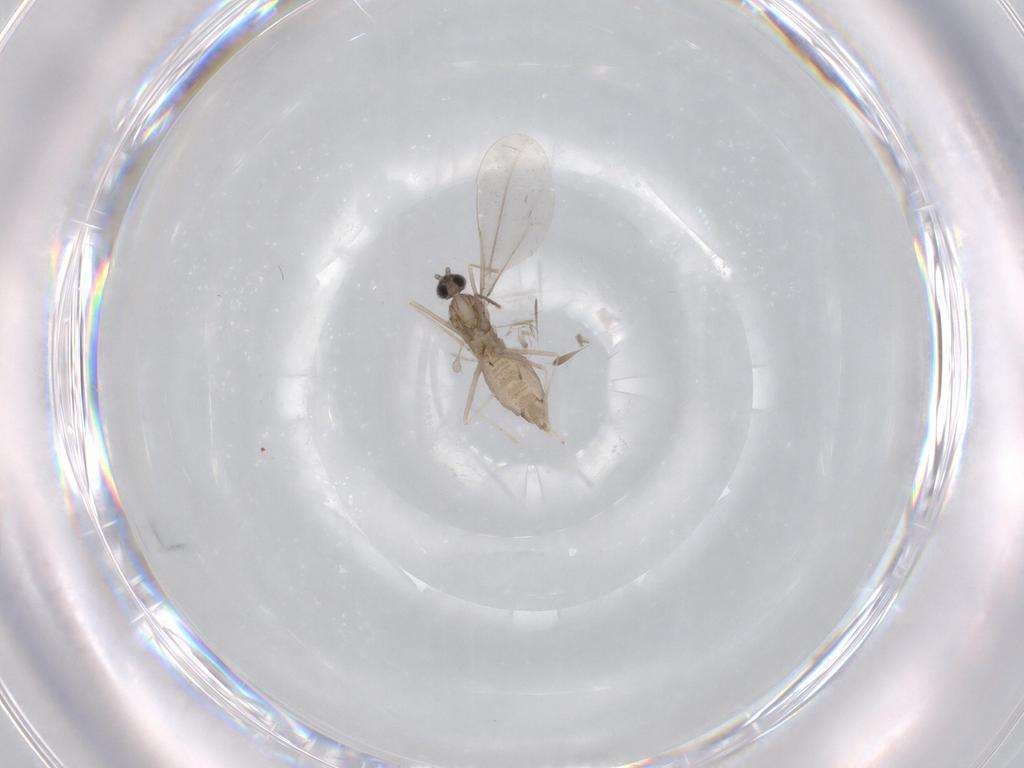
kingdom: Animalia
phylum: Arthropoda
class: Insecta
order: Diptera
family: Cecidomyiidae
